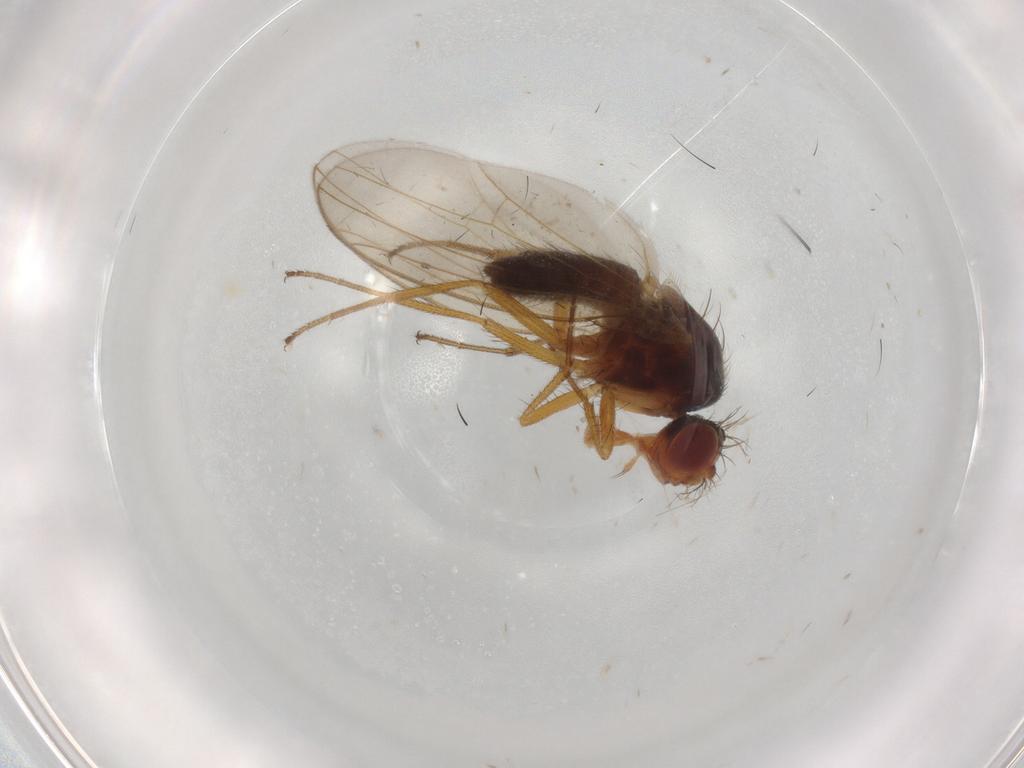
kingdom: Animalia
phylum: Arthropoda
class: Insecta
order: Diptera
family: Drosophilidae
